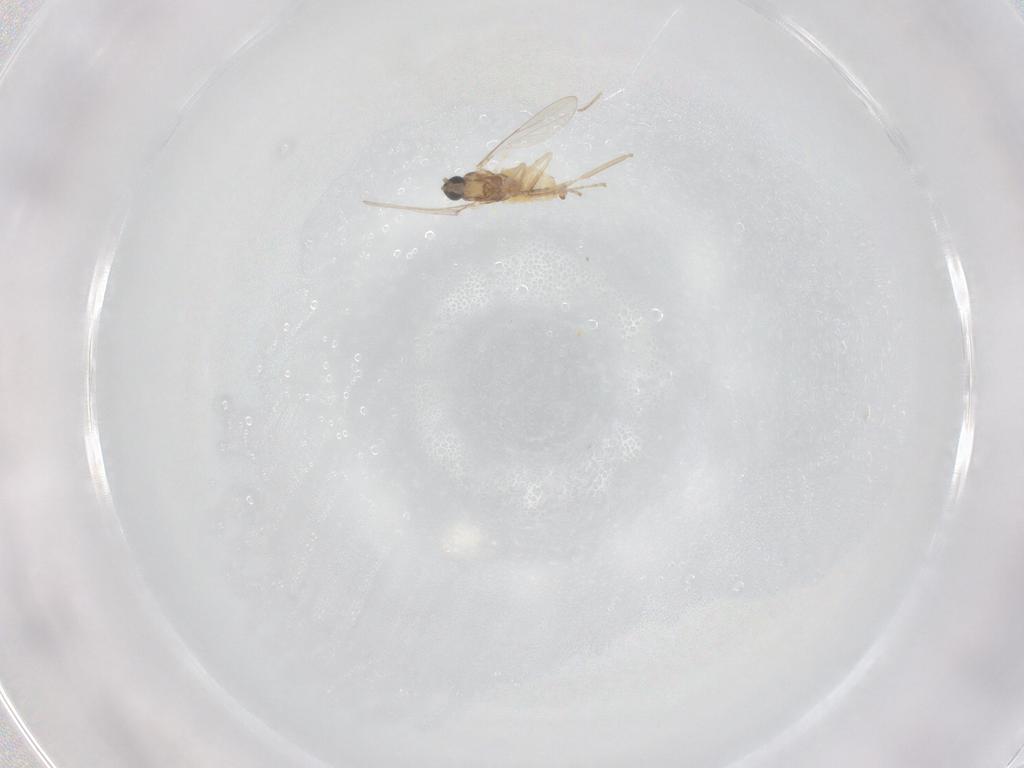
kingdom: Animalia
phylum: Arthropoda
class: Insecta
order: Diptera
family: Cecidomyiidae
